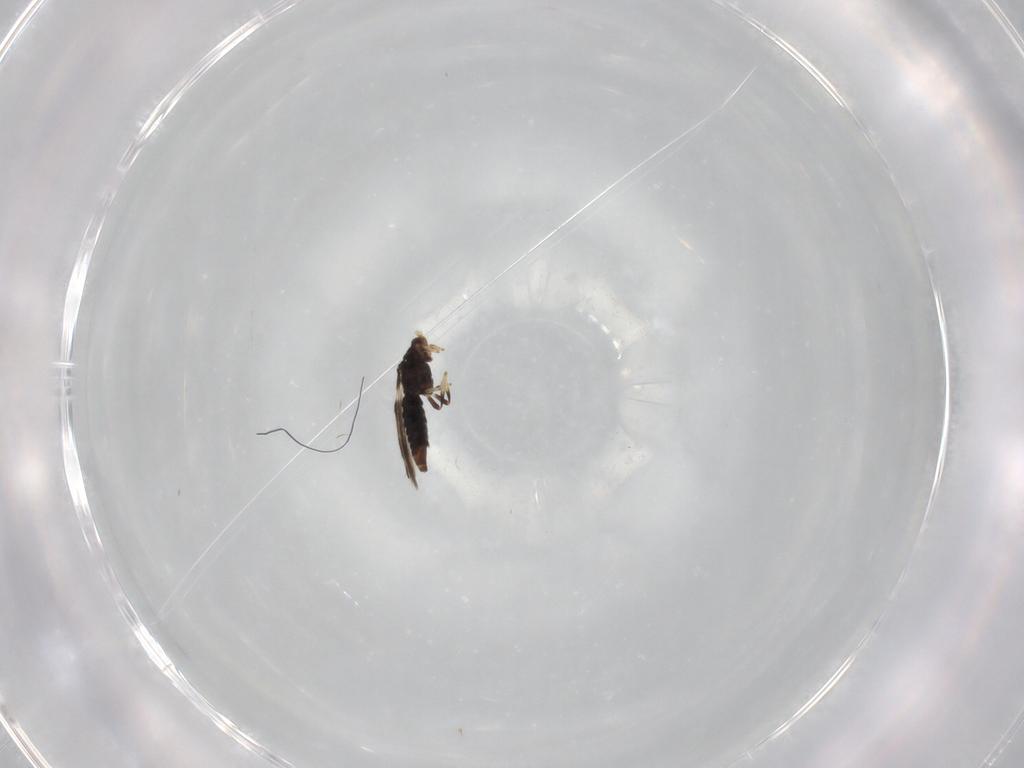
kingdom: Animalia
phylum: Arthropoda
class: Insecta
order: Thysanoptera
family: Thripidae
